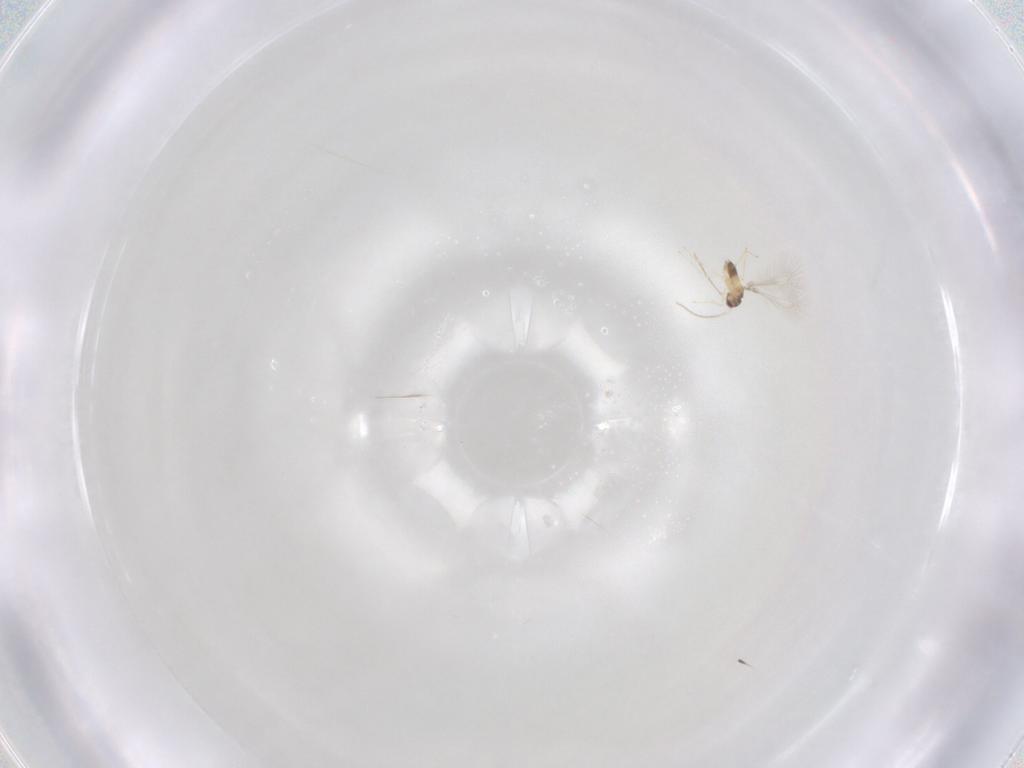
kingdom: Animalia
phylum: Arthropoda
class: Insecta
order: Hymenoptera
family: Mymaridae
